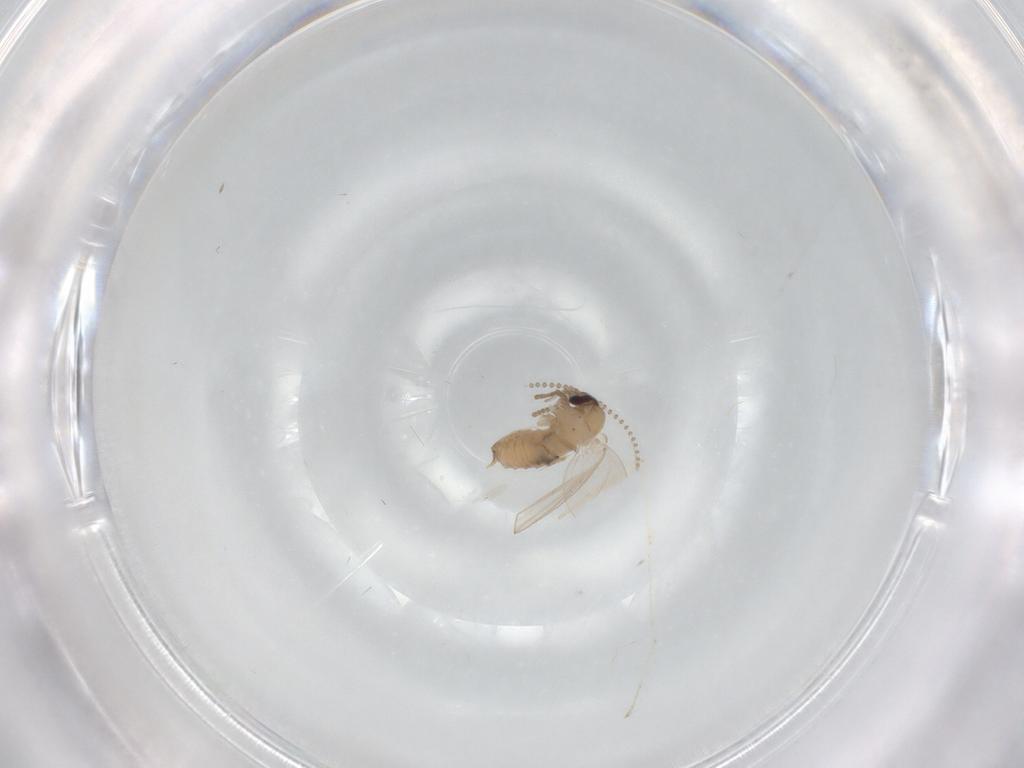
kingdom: Animalia
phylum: Arthropoda
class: Insecta
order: Diptera
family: Psychodidae
